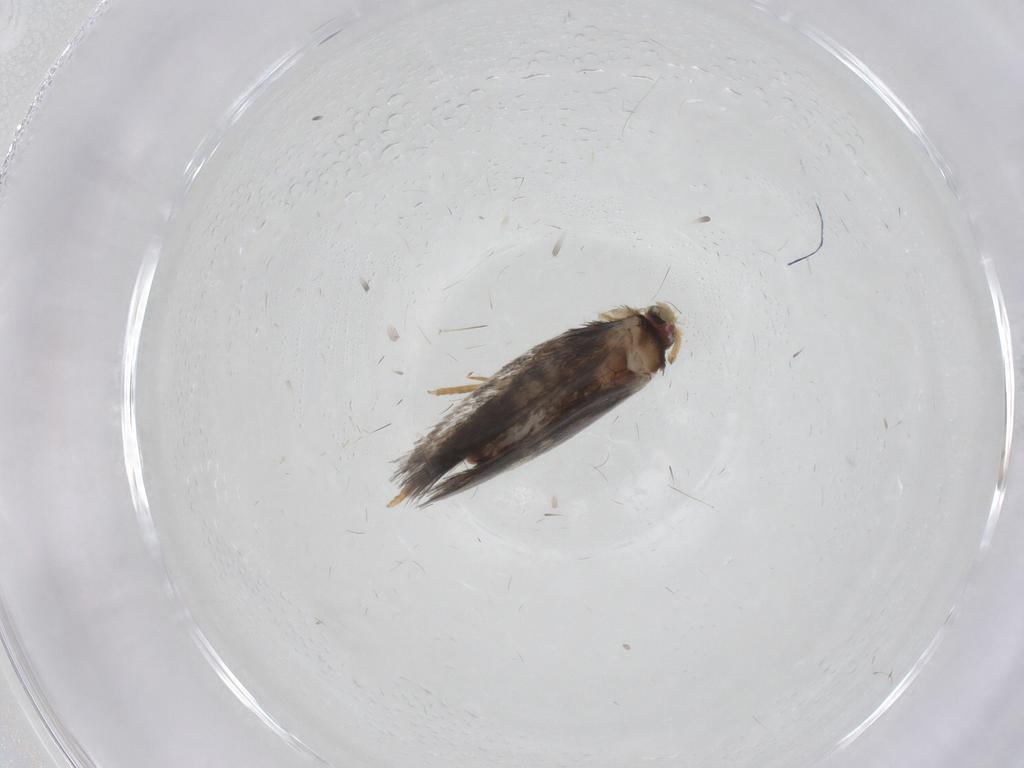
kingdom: Animalia
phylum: Arthropoda
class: Insecta
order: Lepidoptera
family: Nepticulidae
